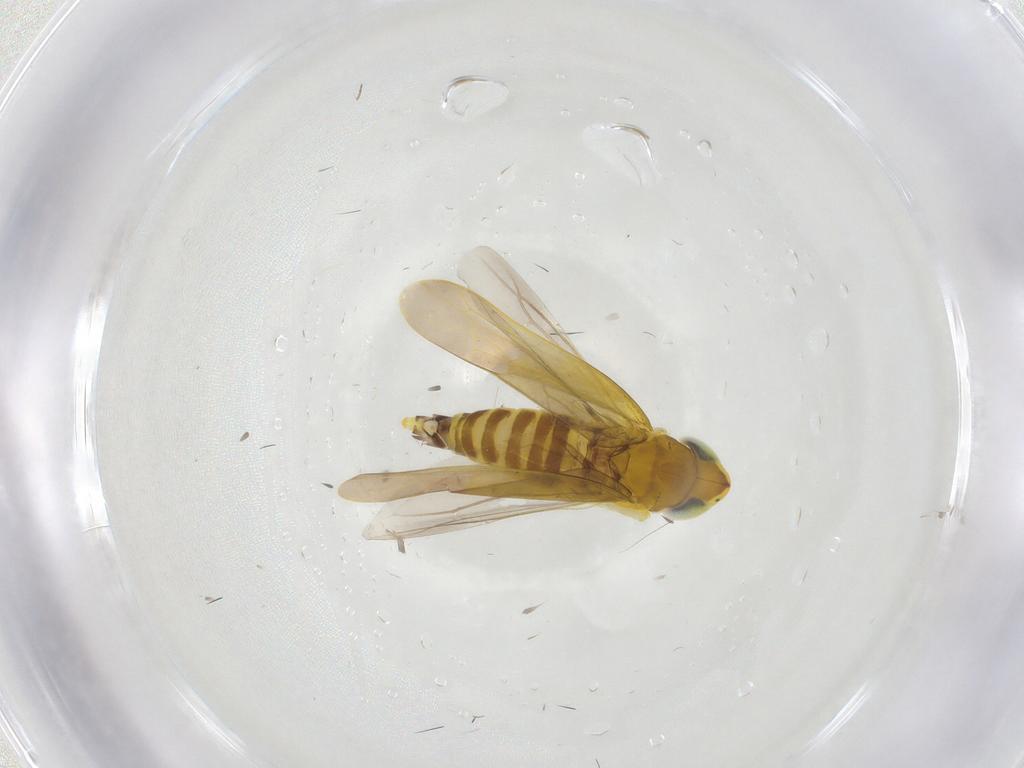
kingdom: Animalia
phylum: Arthropoda
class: Insecta
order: Hemiptera
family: Cicadellidae
